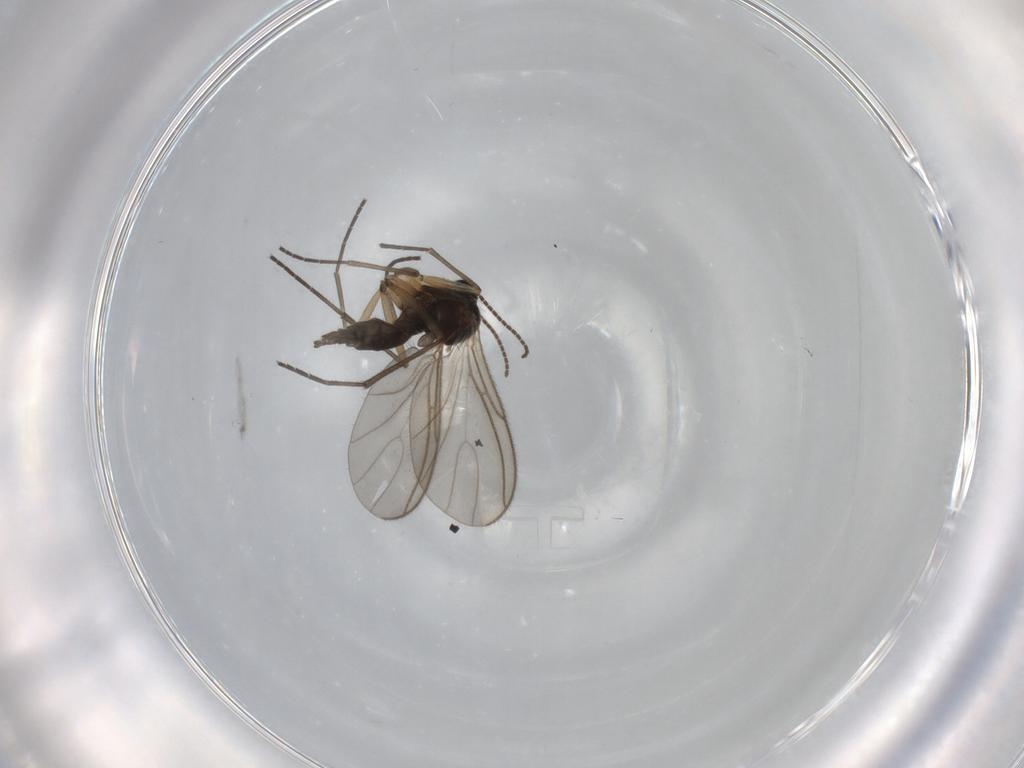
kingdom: Animalia
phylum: Arthropoda
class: Insecta
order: Diptera
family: Sciaridae
